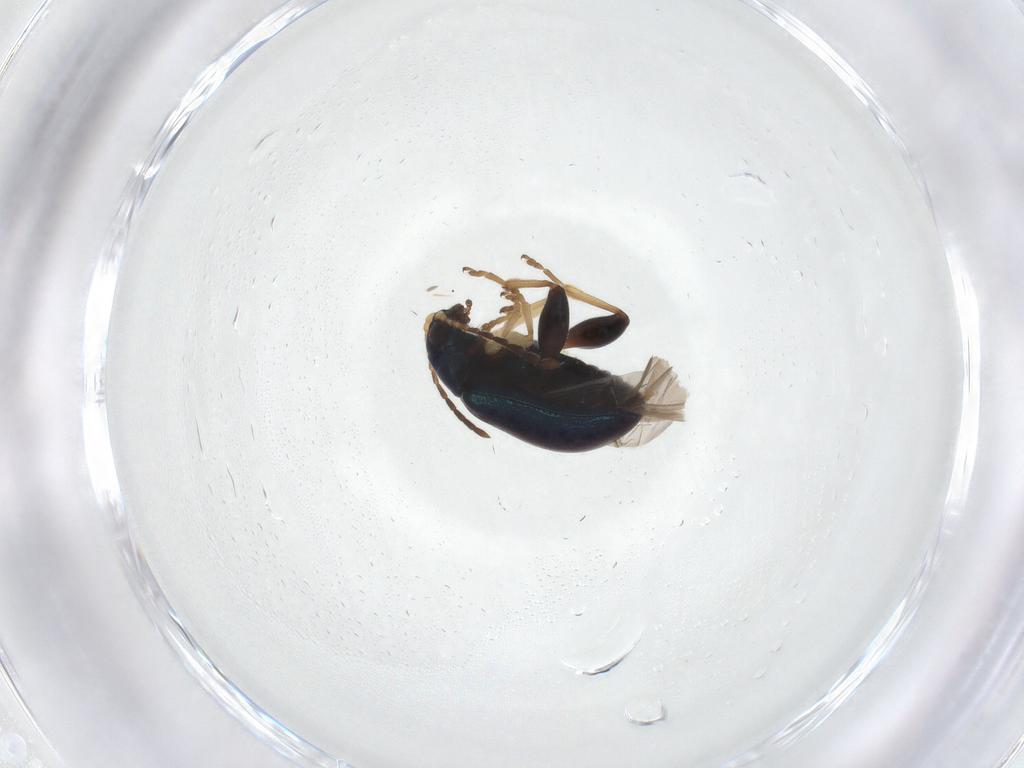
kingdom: Animalia
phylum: Arthropoda
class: Insecta
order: Coleoptera
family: Chrysomelidae
